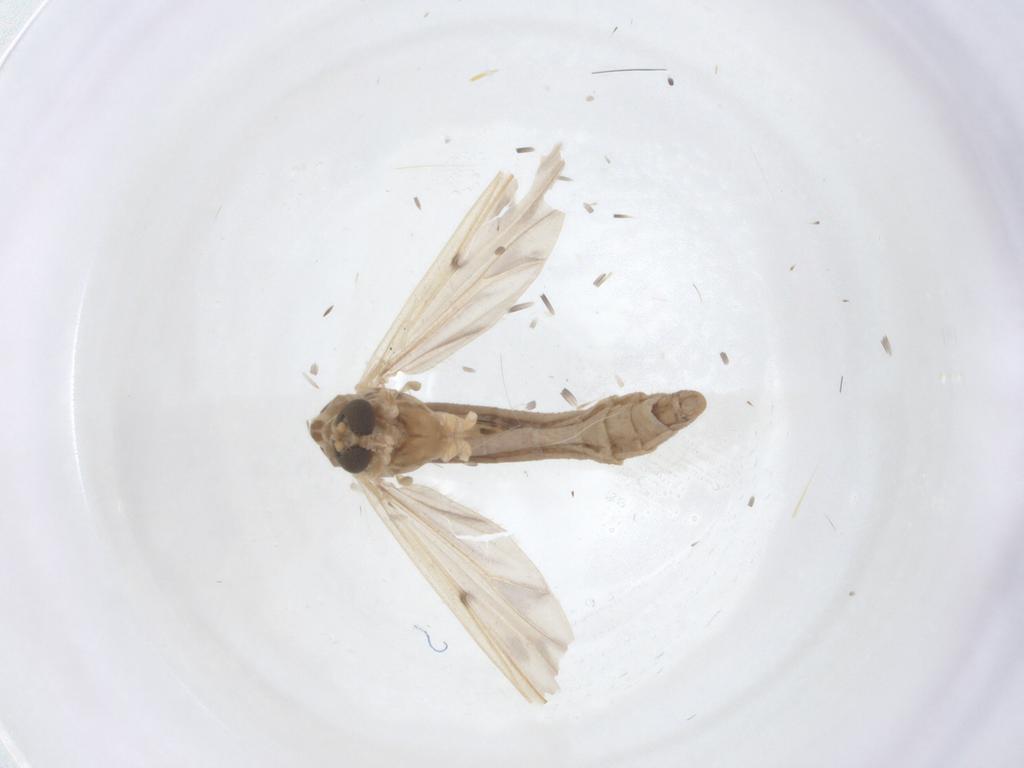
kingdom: Animalia
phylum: Arthropoda
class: Insecta
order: Diptera
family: Chironomidae
